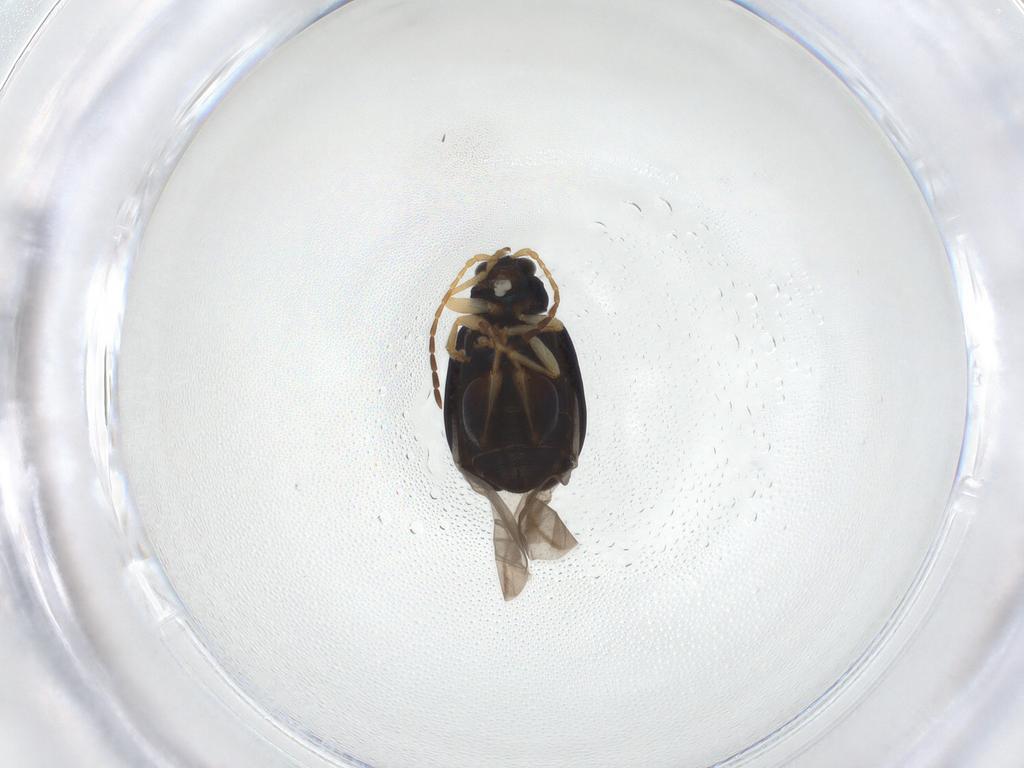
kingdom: Animalia
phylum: Arthropoda
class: Insecta
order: Coleoptera
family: Chrysomelidae
